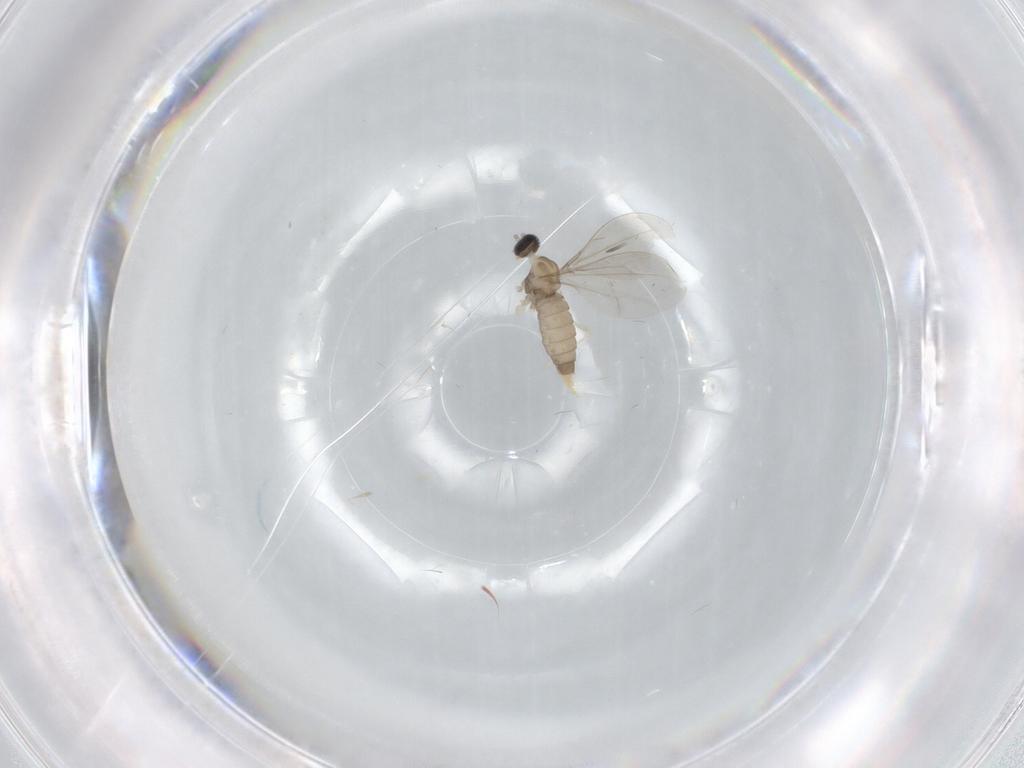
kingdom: Animalia
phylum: Arthropoda
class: Insecta
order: Diptera
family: Cecidomyiidae
